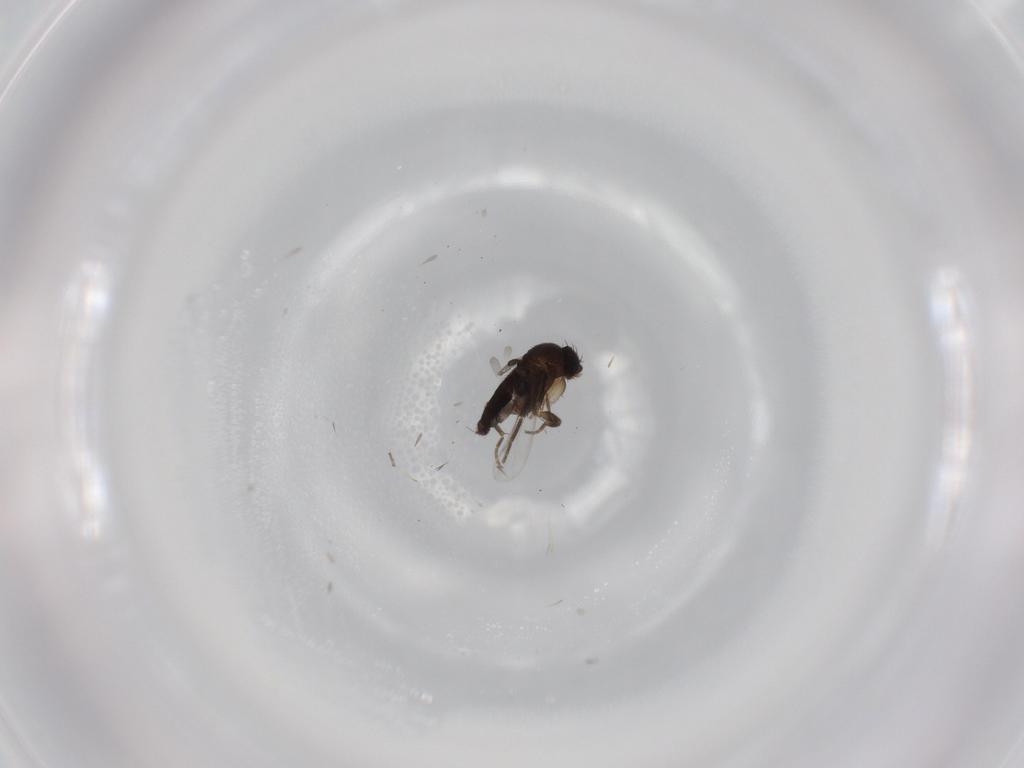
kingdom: Animalia
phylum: Arthropoda
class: Insecta
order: Diptera
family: Phoridae
